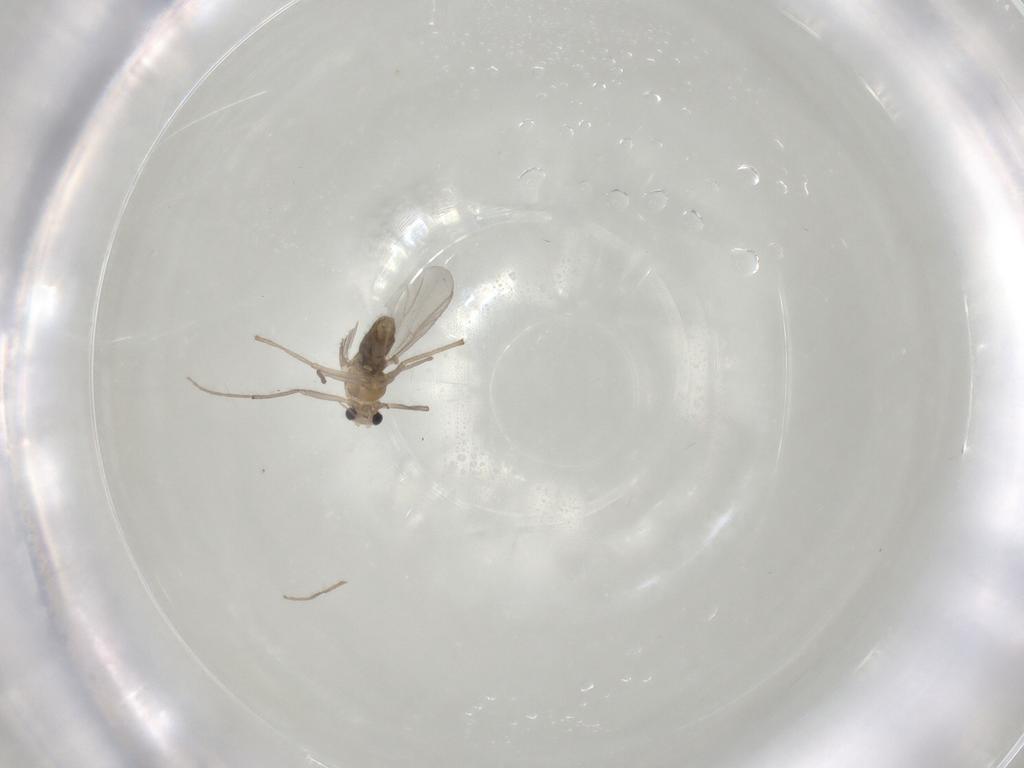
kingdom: Animalia
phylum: Arthropoda
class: Insecta
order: Diptera
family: Chironomidae
